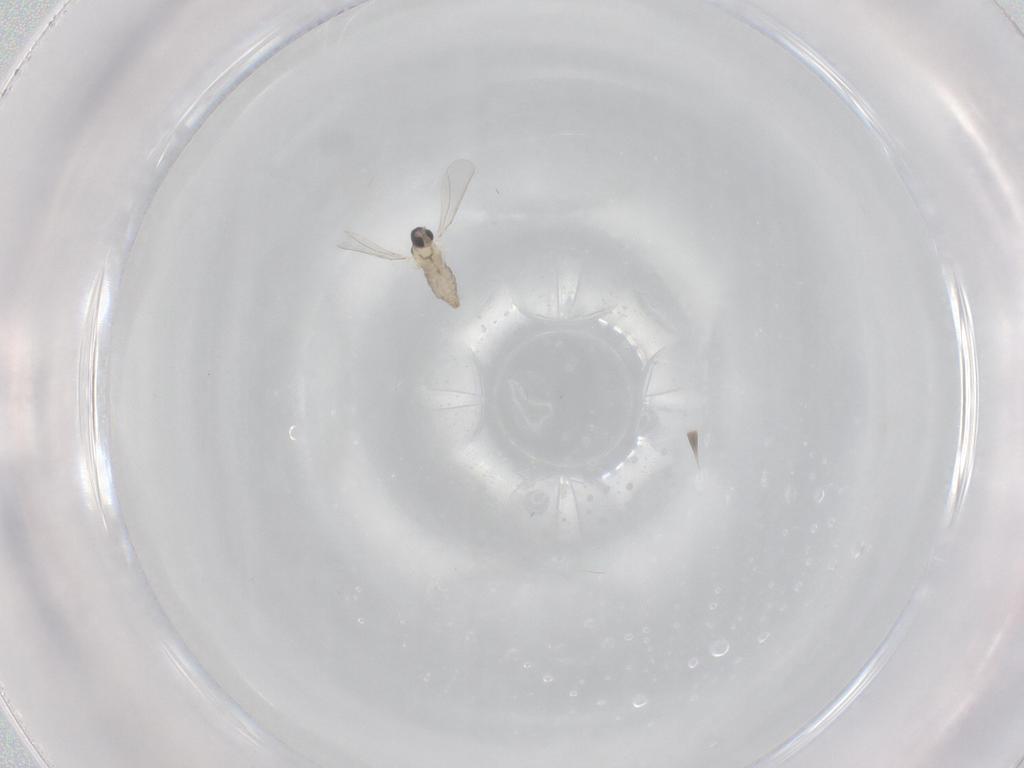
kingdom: Animalia
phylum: Arthropoda
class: Insecta
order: Diptera
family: Cecidomyiidae
